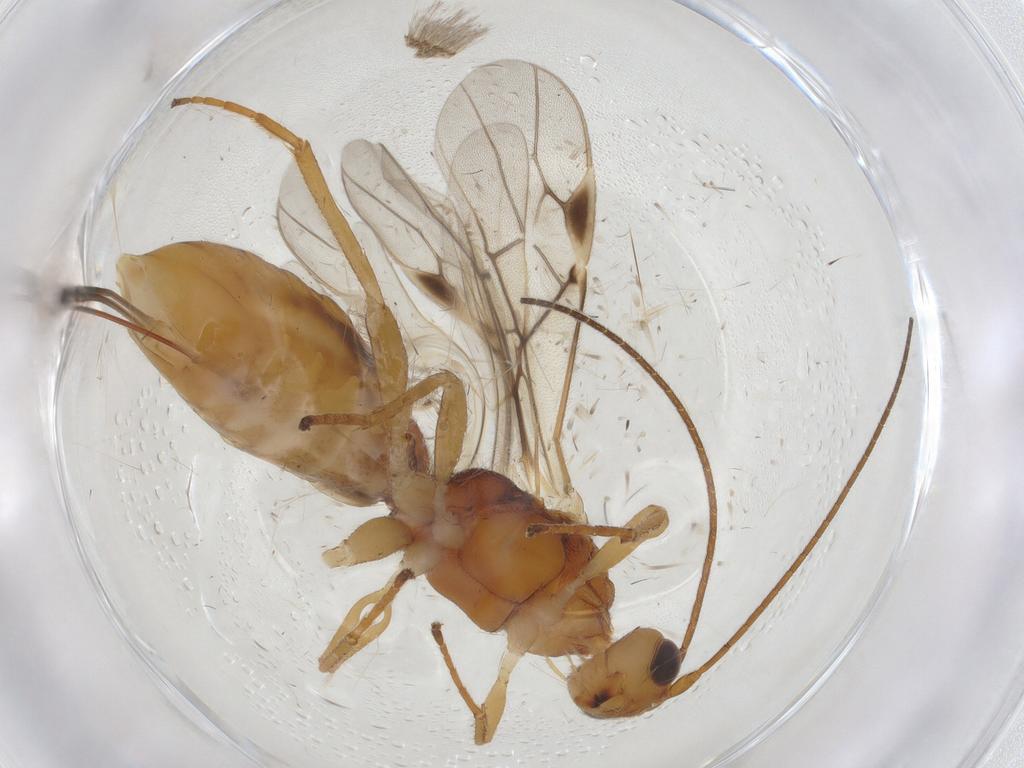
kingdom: Animalia
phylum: Arthropoda
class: Insecta
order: Hymenoptera
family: Braconidae
